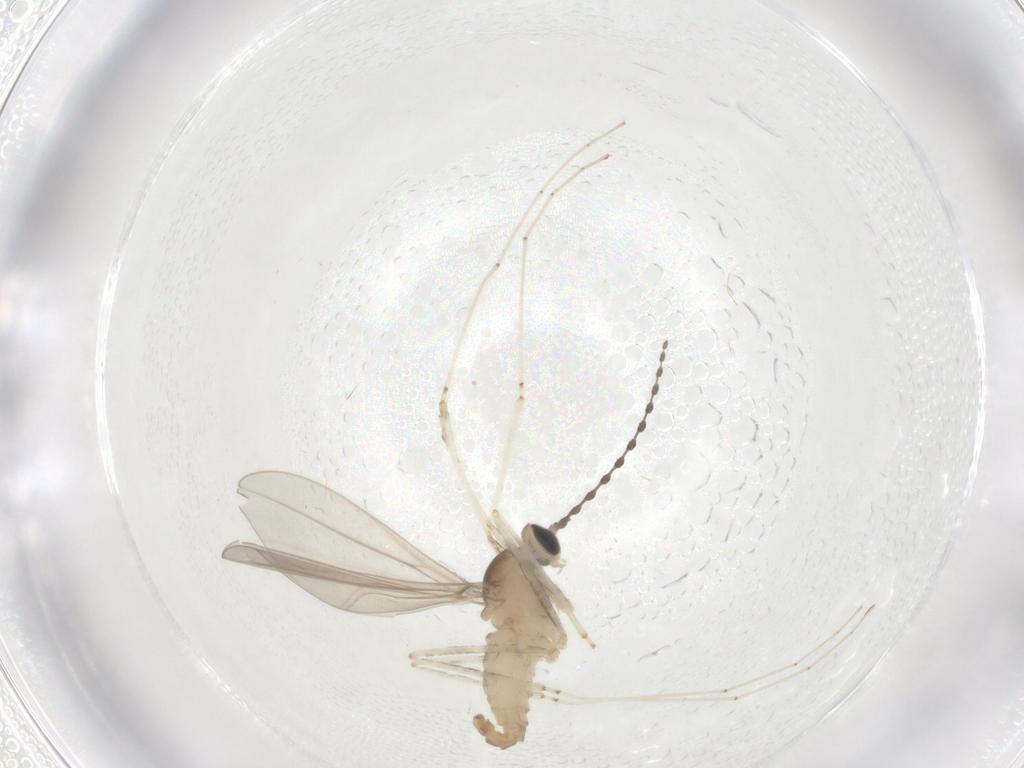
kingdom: Animalia
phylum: Arthropoda
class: Insecta
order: Diptera
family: Cecidomyiidae
